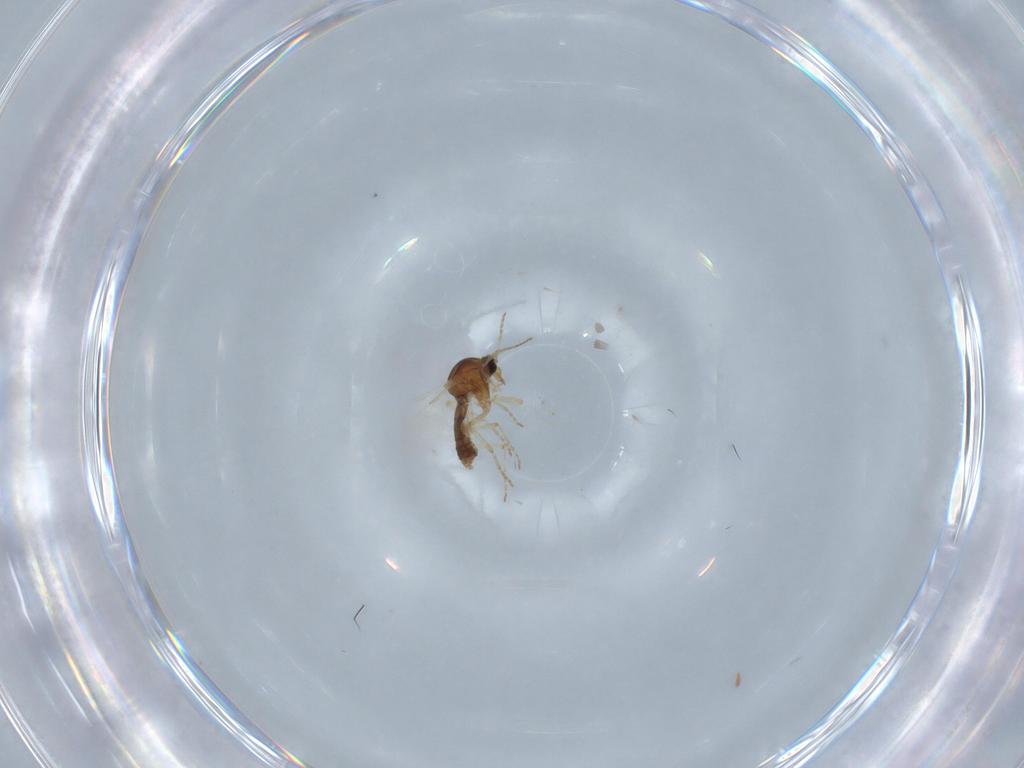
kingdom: Animalia
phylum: Arthropoda
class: Insecta
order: Diptera
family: Ceratopogonidae
